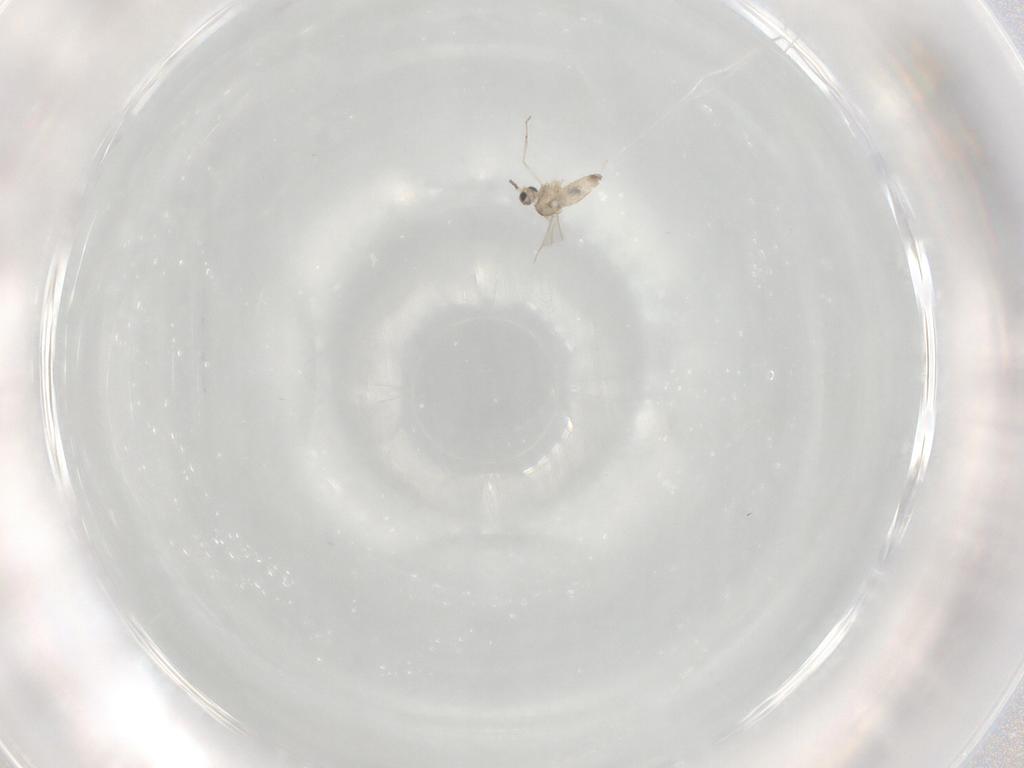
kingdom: Animalia
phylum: Arthropoda
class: Insecta
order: Diptera
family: Cecidomyiidae
